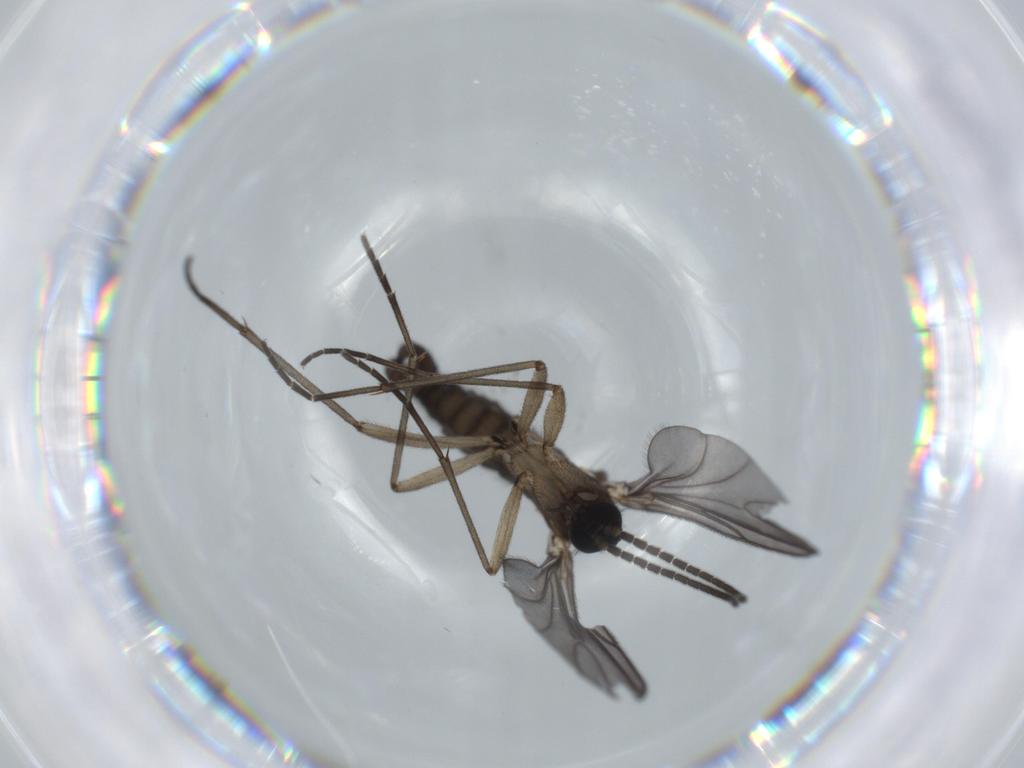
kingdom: Animalia
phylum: Arthropoda
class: Insecta
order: Diptera
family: Sciaridae
